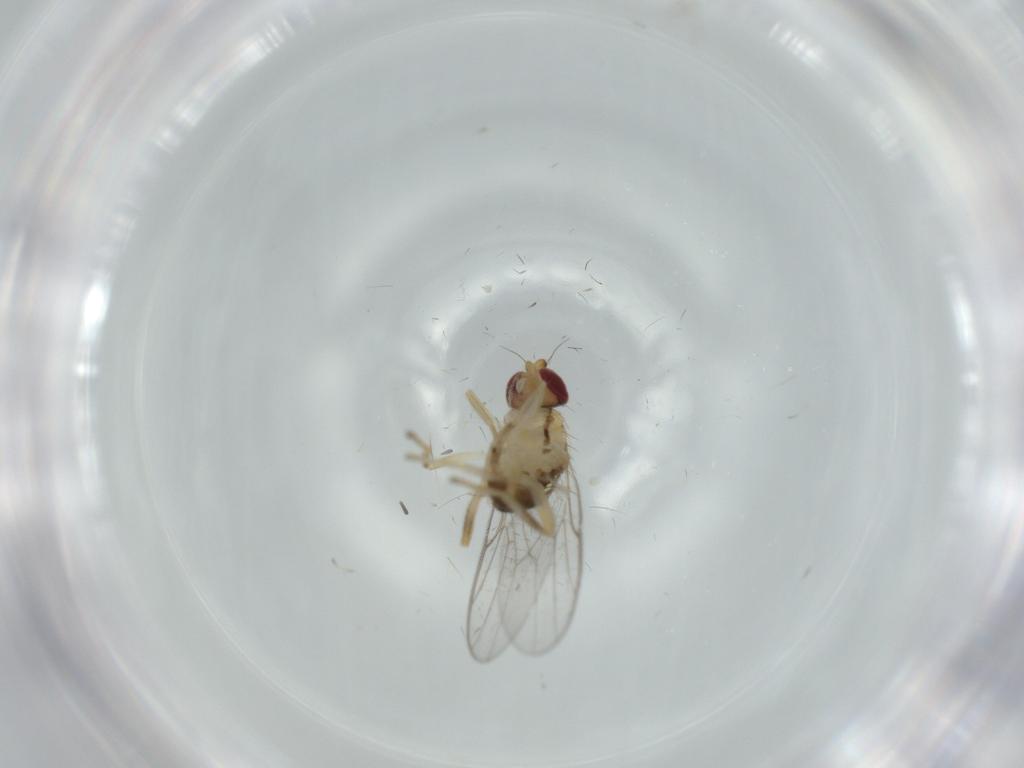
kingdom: Animalia
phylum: Arthropoda
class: Insecta
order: Diptera
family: Chloropidae
